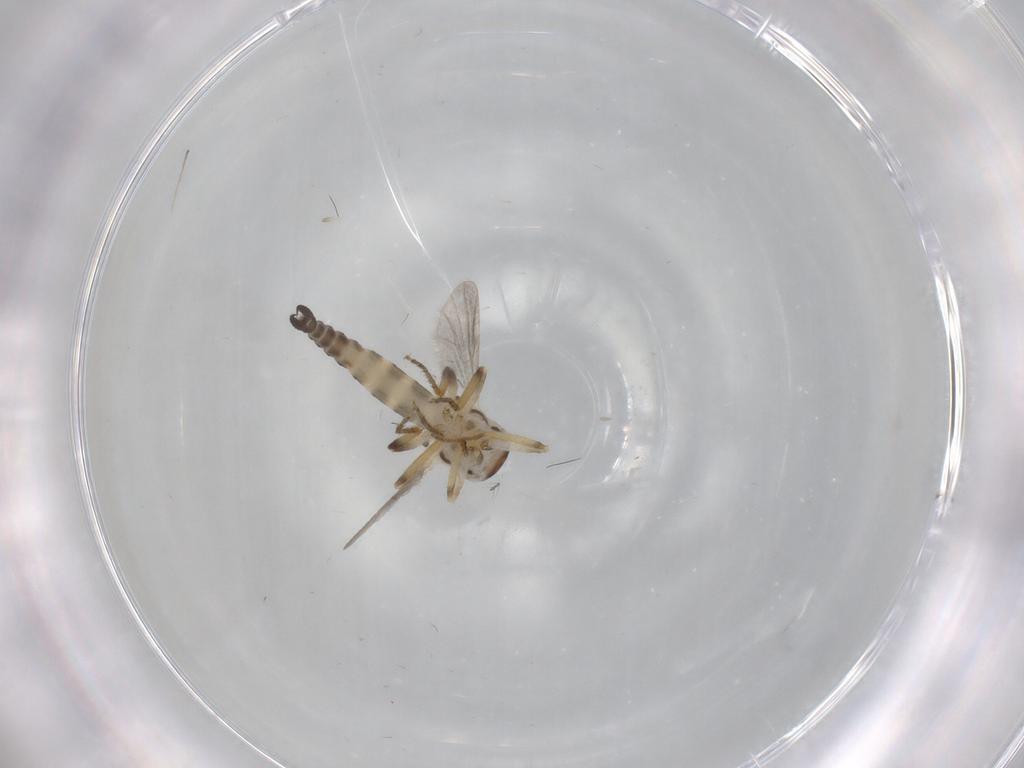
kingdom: Animalia
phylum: Arthropoda
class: Insecta
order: Diptera
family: Ceratopogonidae
